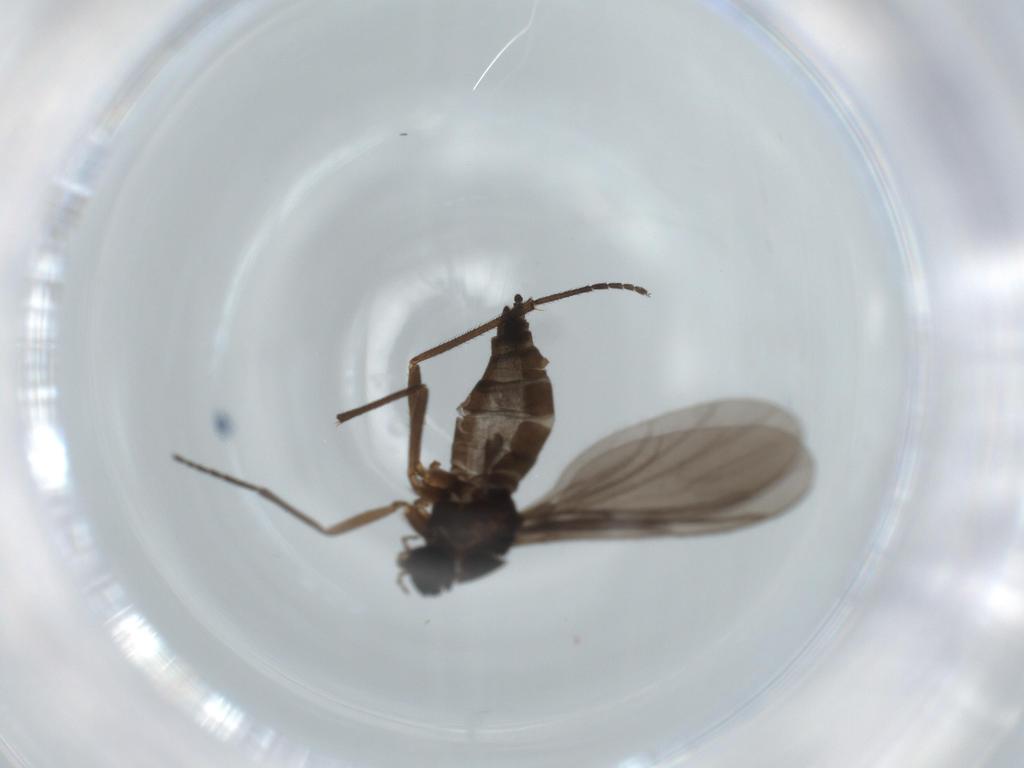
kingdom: Animalia
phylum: Arthropoda
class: Insecta
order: Diptera
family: Sciaridae
